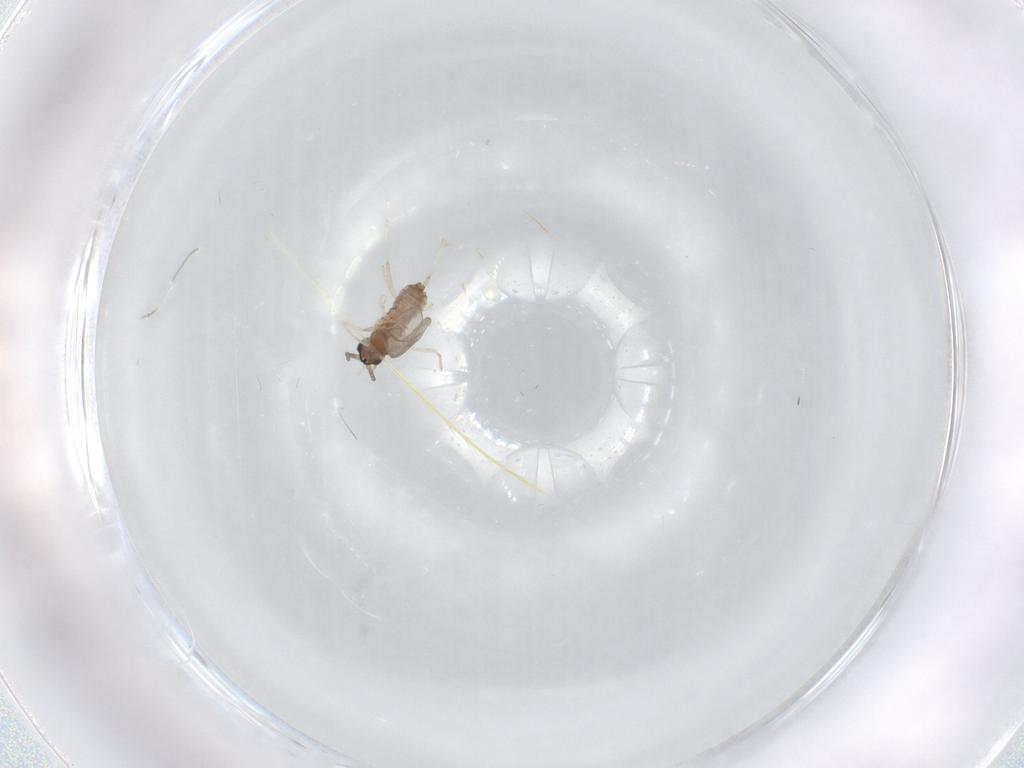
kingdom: Animalia
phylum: Arthropoda
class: Insecta
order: Diptera
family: Cecidomyiidae
